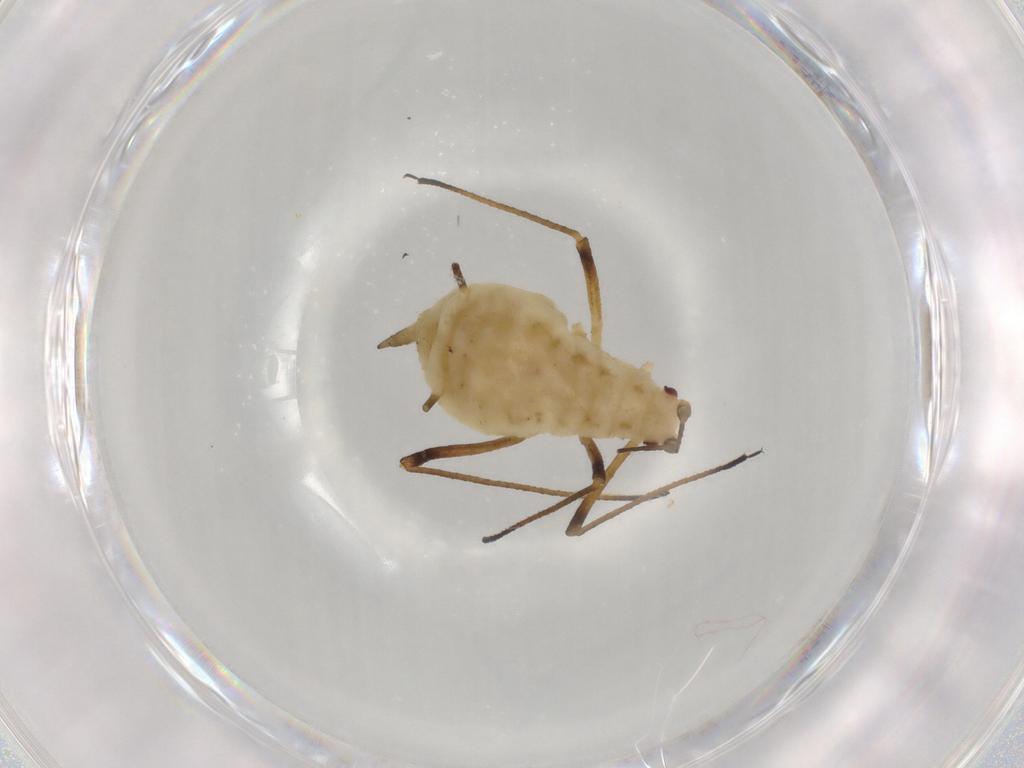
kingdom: Animalia
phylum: Arthropoda
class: Insecta
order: Hemiptera
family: Aphididae
